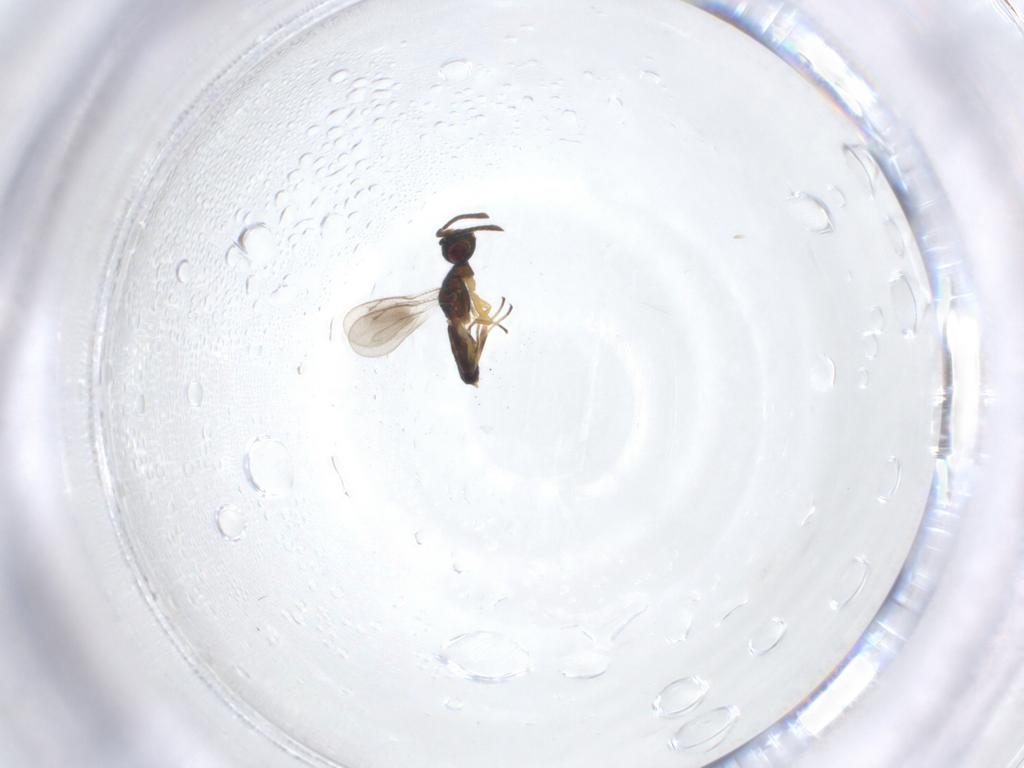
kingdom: Animalia
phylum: Arthropoda
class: Insecta
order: Hymenoptera
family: Eupelmidae
